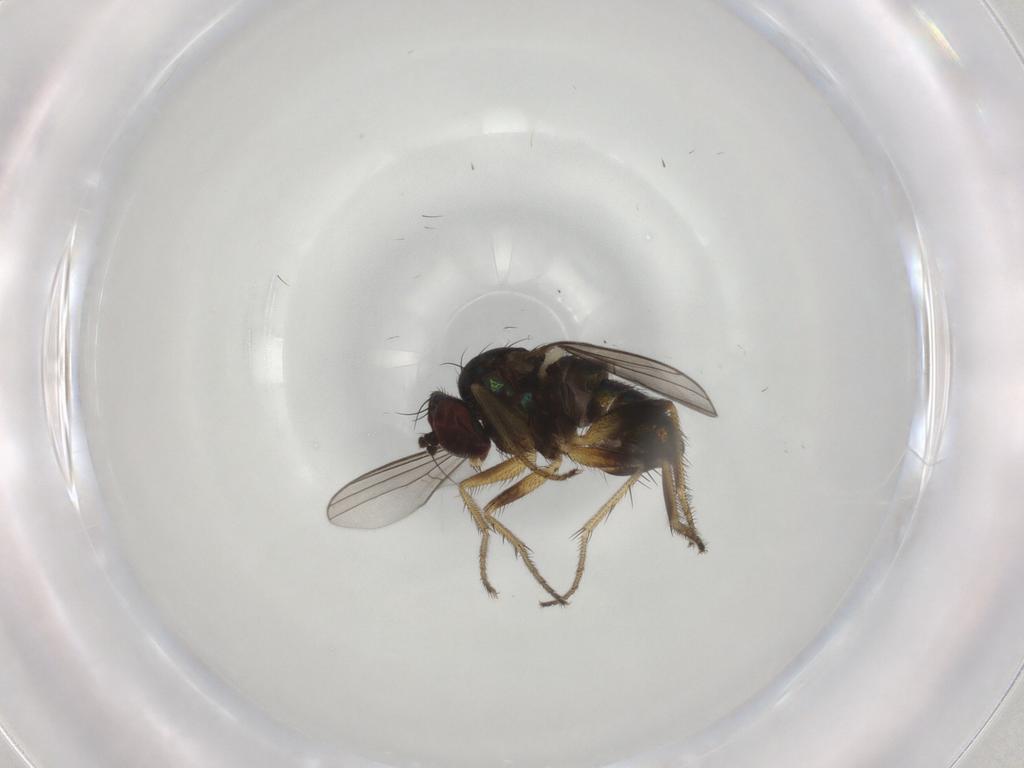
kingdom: Animalia
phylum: Arthropoda
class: Insecta
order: Diptera
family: Dolichopodidae
